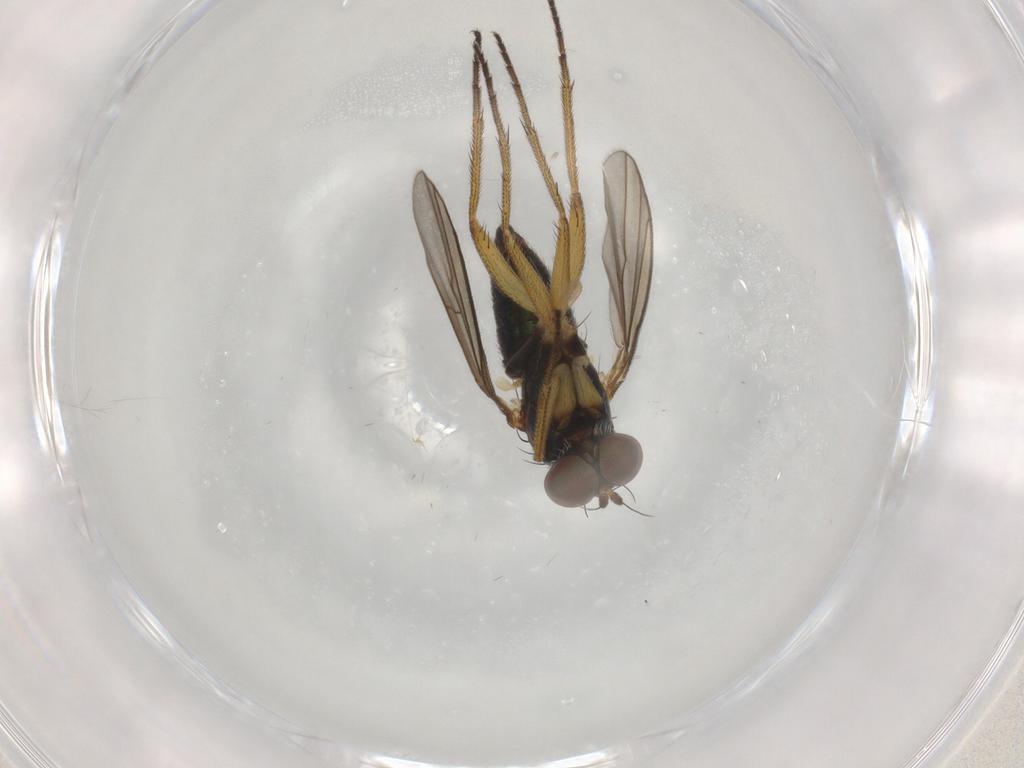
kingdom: Animalia
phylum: Arthropoda
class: Insecta
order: Diptera
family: Dolichopodidae
